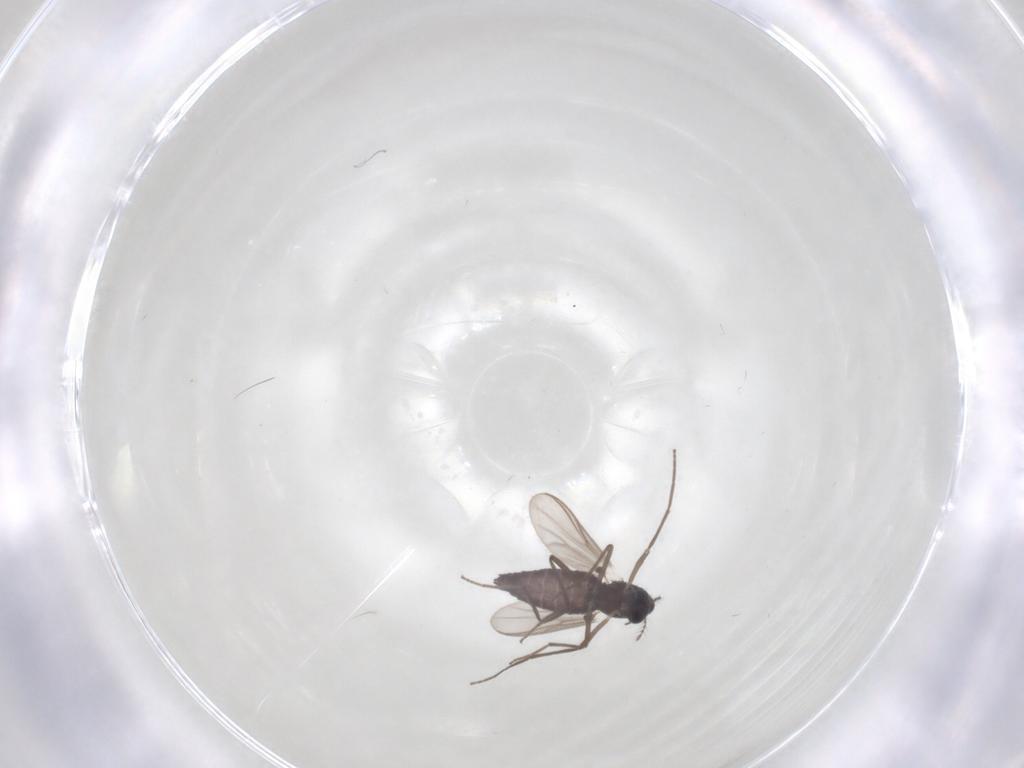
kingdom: Animalia
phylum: Arthropoda
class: Insecta
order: Diptera
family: Chironomidae
